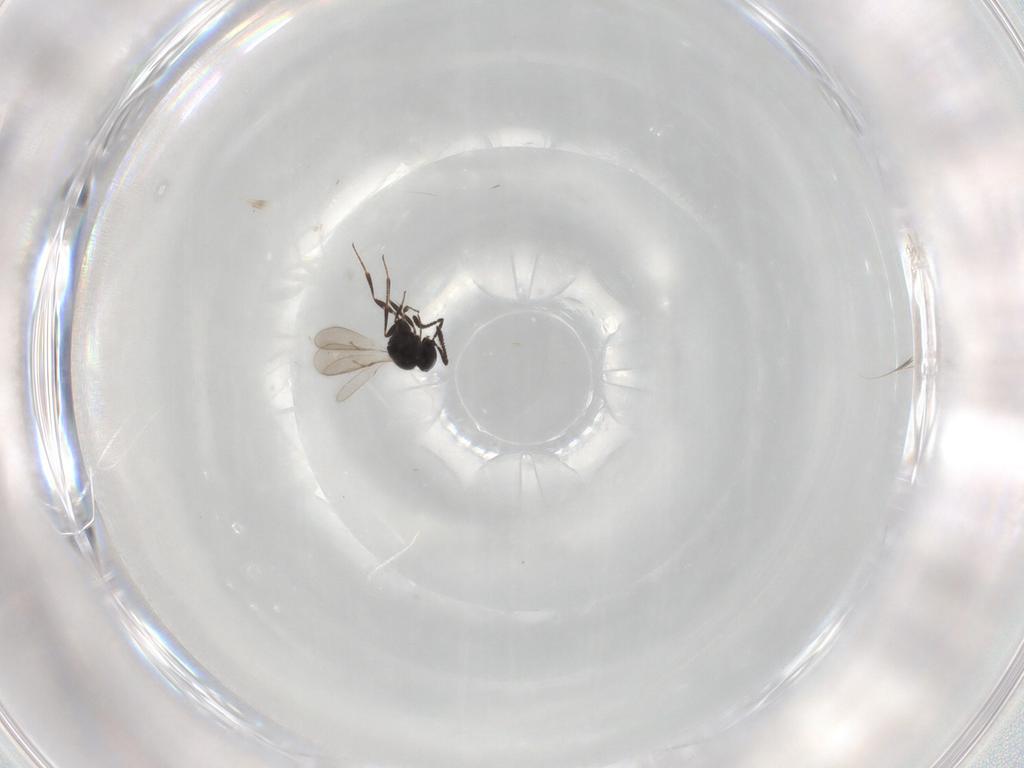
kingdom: Animalia
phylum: Arthropoda
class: Insecta
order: Hymenoptera
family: Scelionidae
